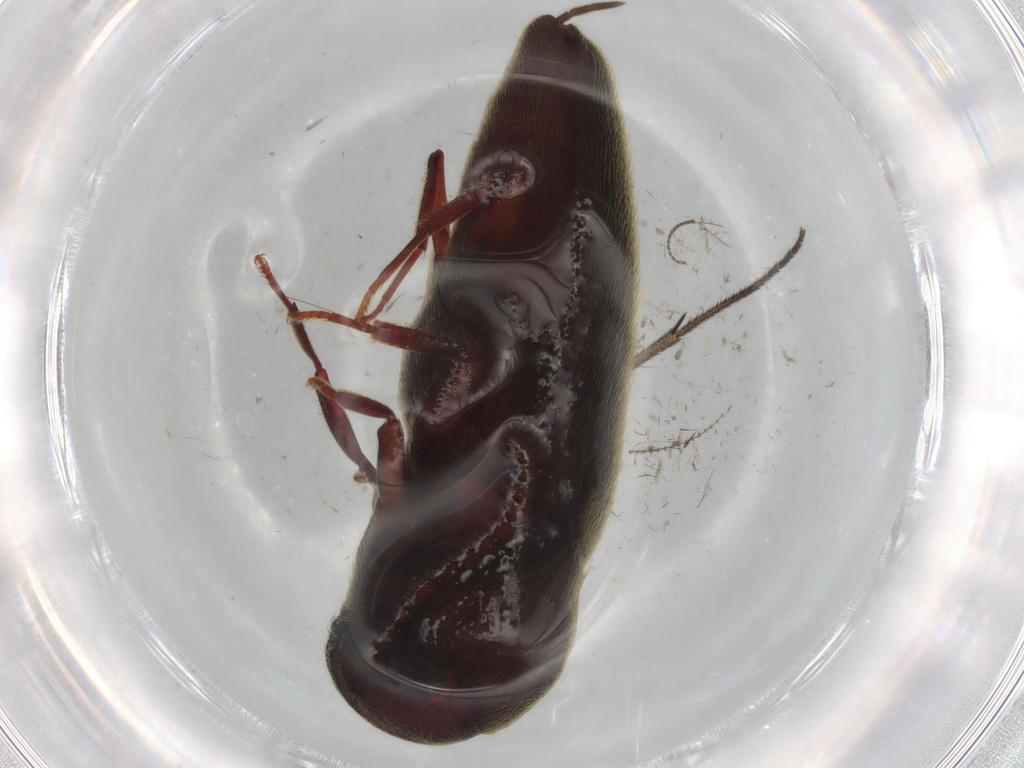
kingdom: Animalia
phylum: Arthropoda
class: Insecta
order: Coleoptera
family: Eucnemidae
